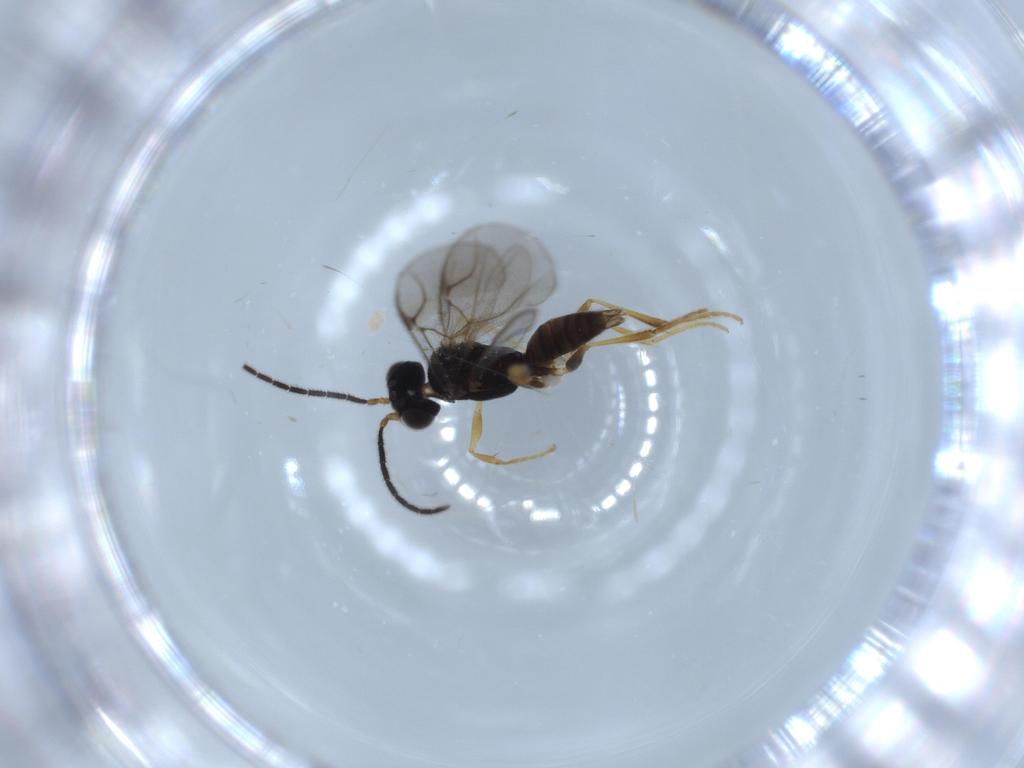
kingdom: Animalia
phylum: Arthropoda
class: Insecta
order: Hymenoptera
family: Dryinidae
